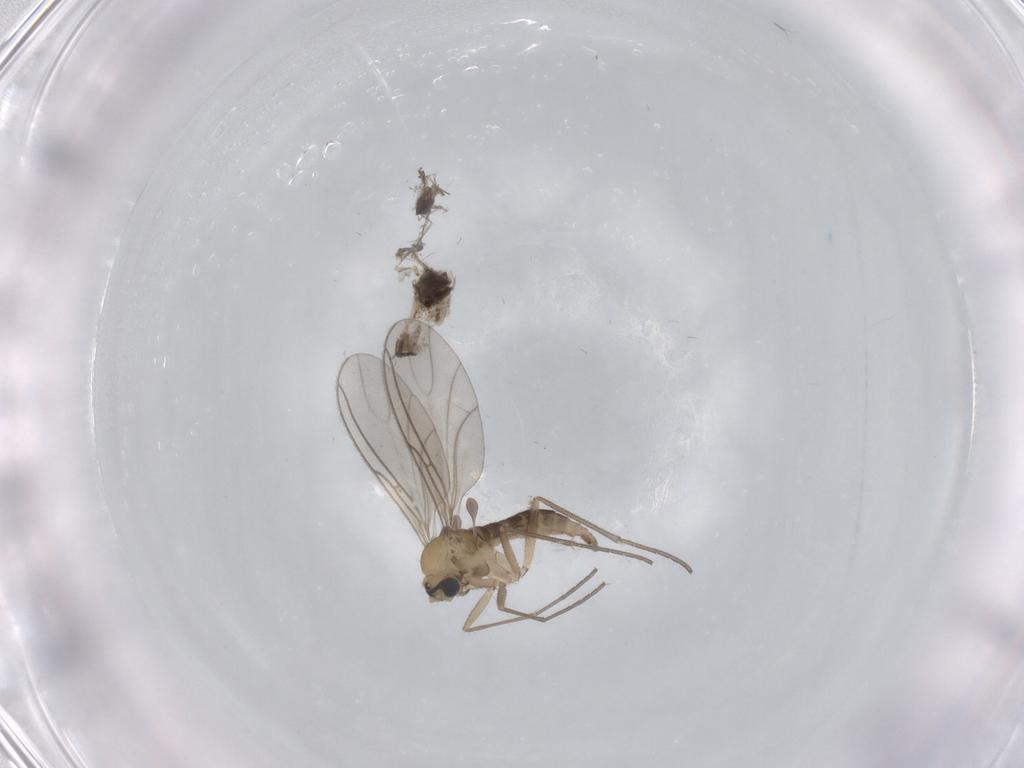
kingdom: Animalia
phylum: Arthropoda
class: Insecta
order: Diptera
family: Sciaridae
